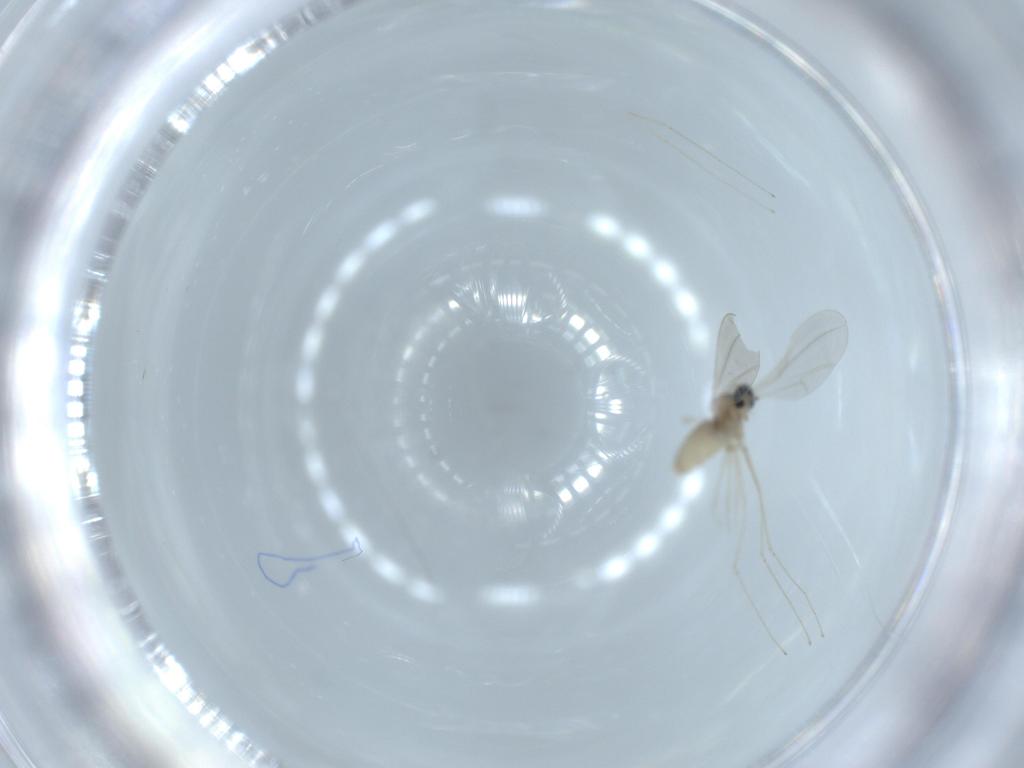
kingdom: Animalia
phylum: Arthropoda
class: Insecta
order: Diptera
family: Cecidomyiidae
